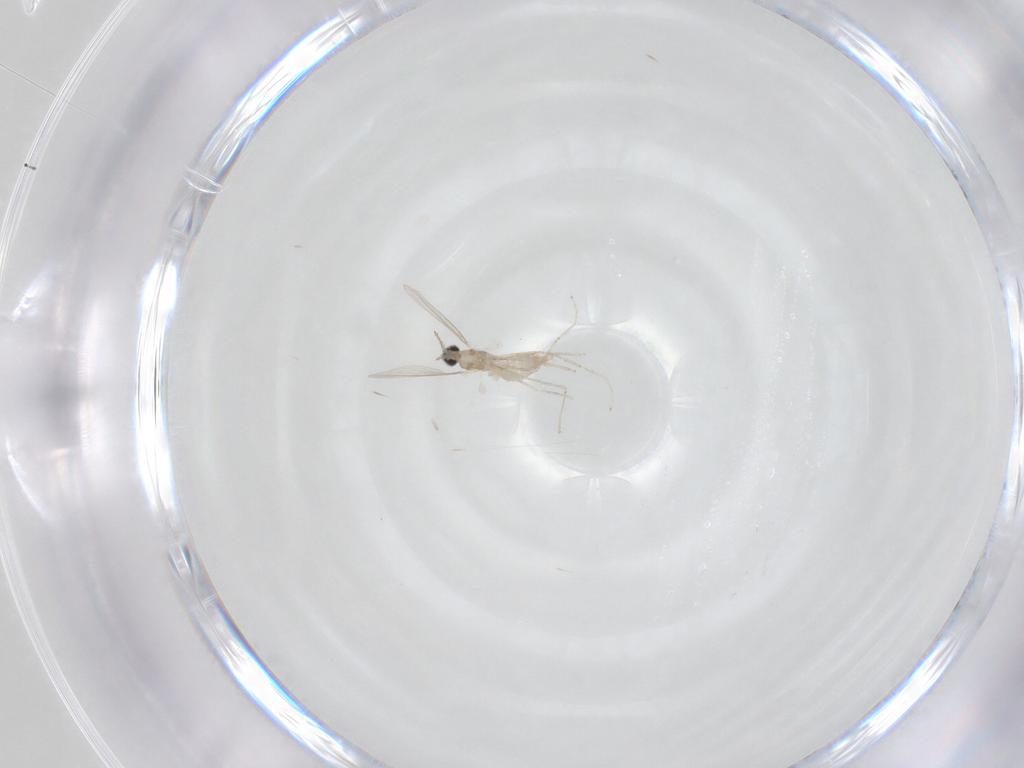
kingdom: Animalia
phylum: Arthropoda
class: Insecta
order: Diptera
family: Cecidomyiidae
